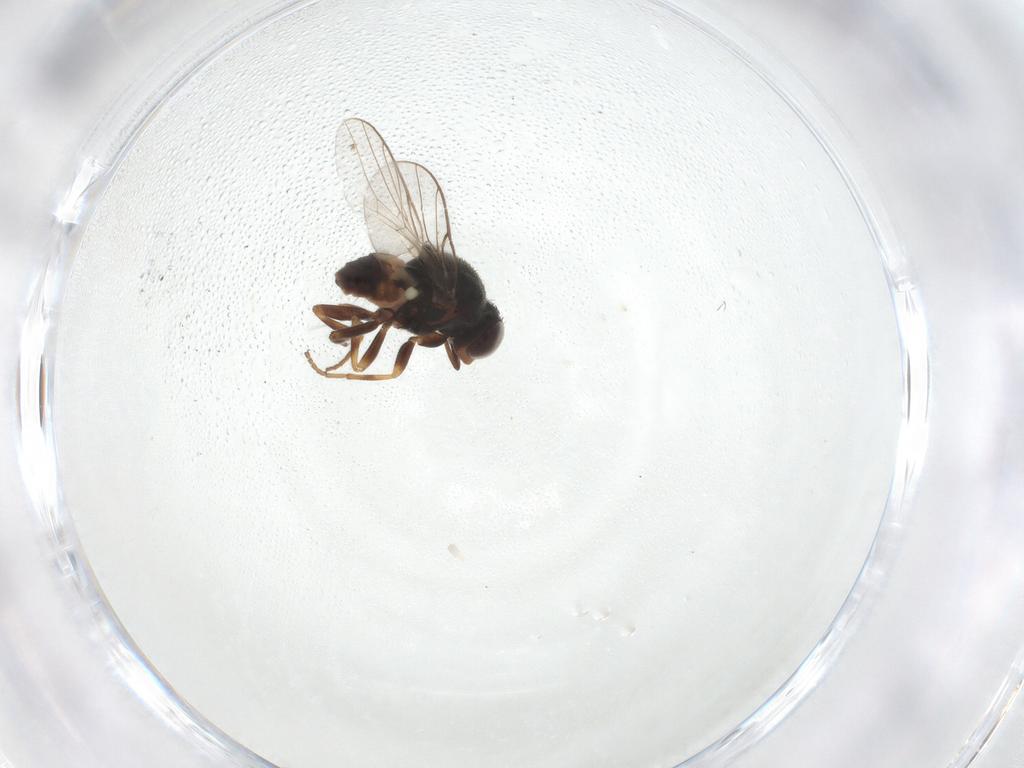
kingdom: Animalia
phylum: Arthropoda
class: Insecta
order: Diptera
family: Chloropidae
